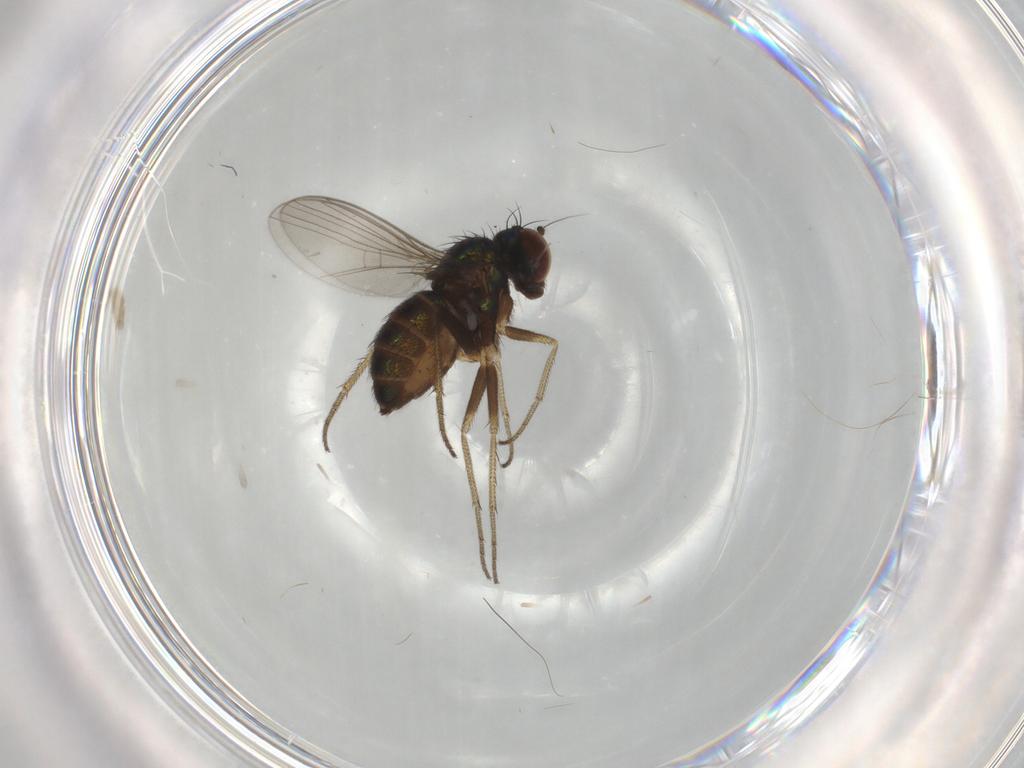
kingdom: Animalia
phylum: Arthropoda
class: Insecta
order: Diptera
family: Chironomidae
